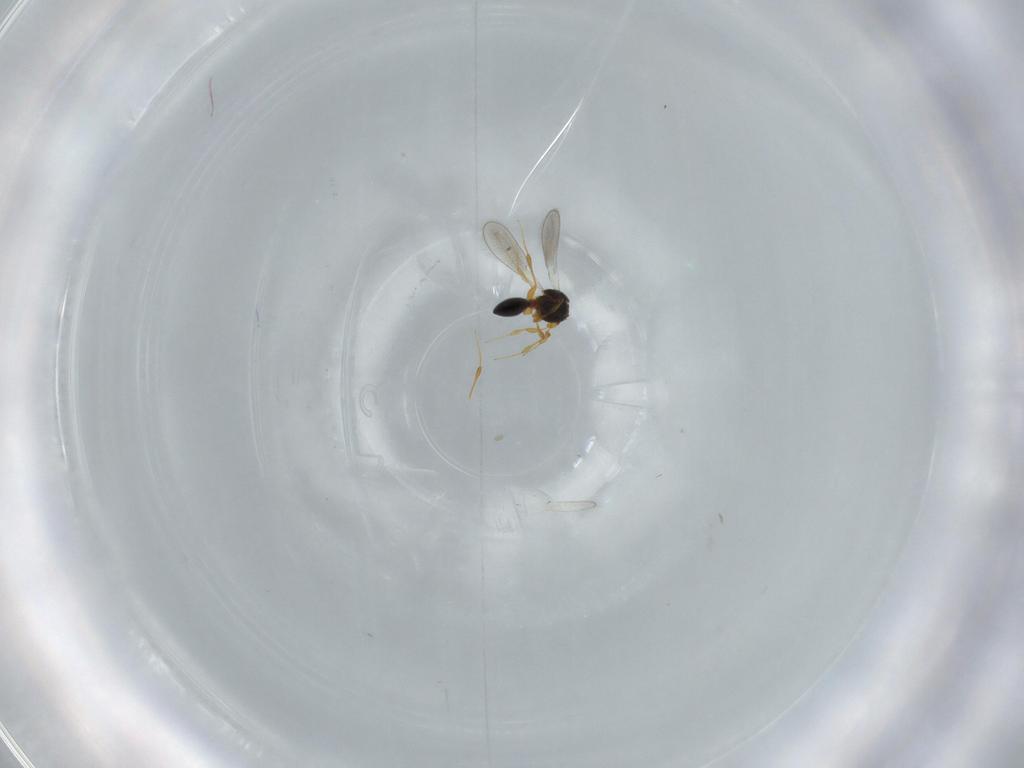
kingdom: Animalia
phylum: Arthropoda
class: Insecta
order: Hymenoptera
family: Platygastridae
